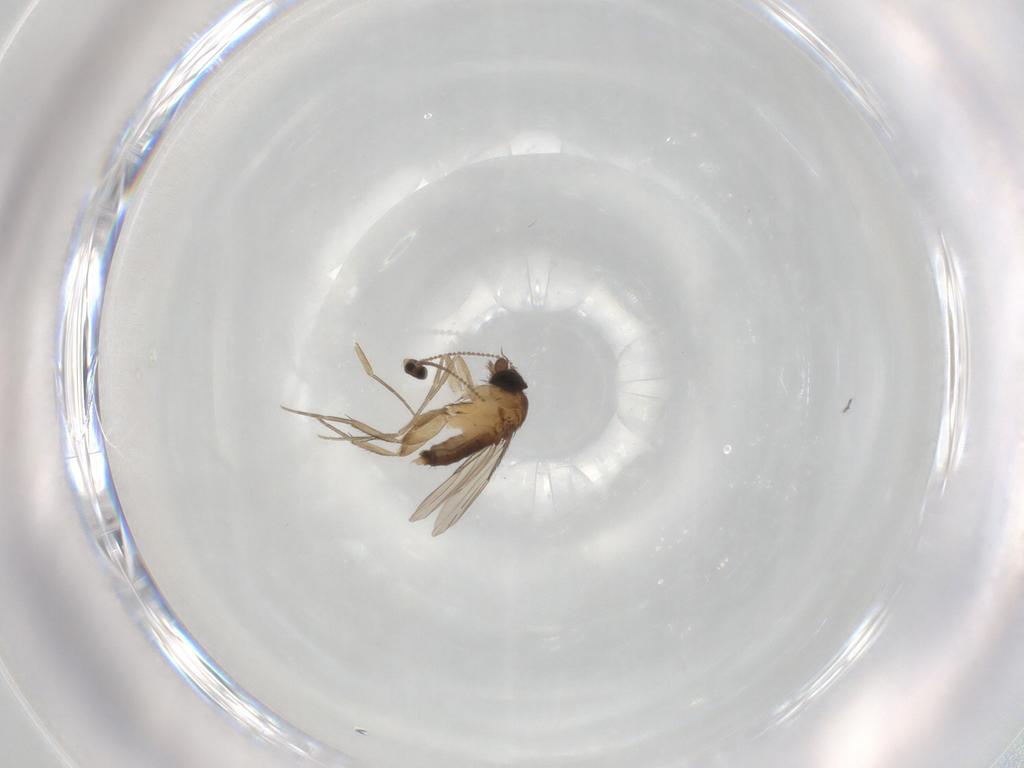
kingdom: Animalia
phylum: Arthropoda
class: Insecta
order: Diptera
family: Cecidomyiidae
